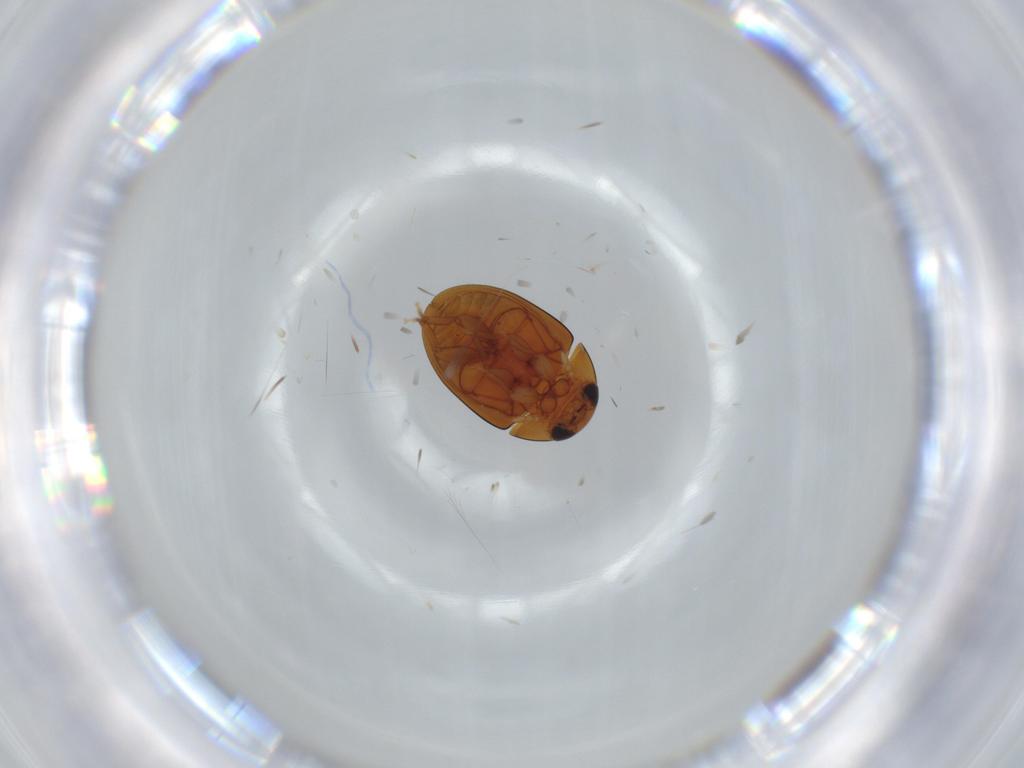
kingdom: Animalia
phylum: Arthropoda
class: Insecta
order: Coleoptera
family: Phalacridae
